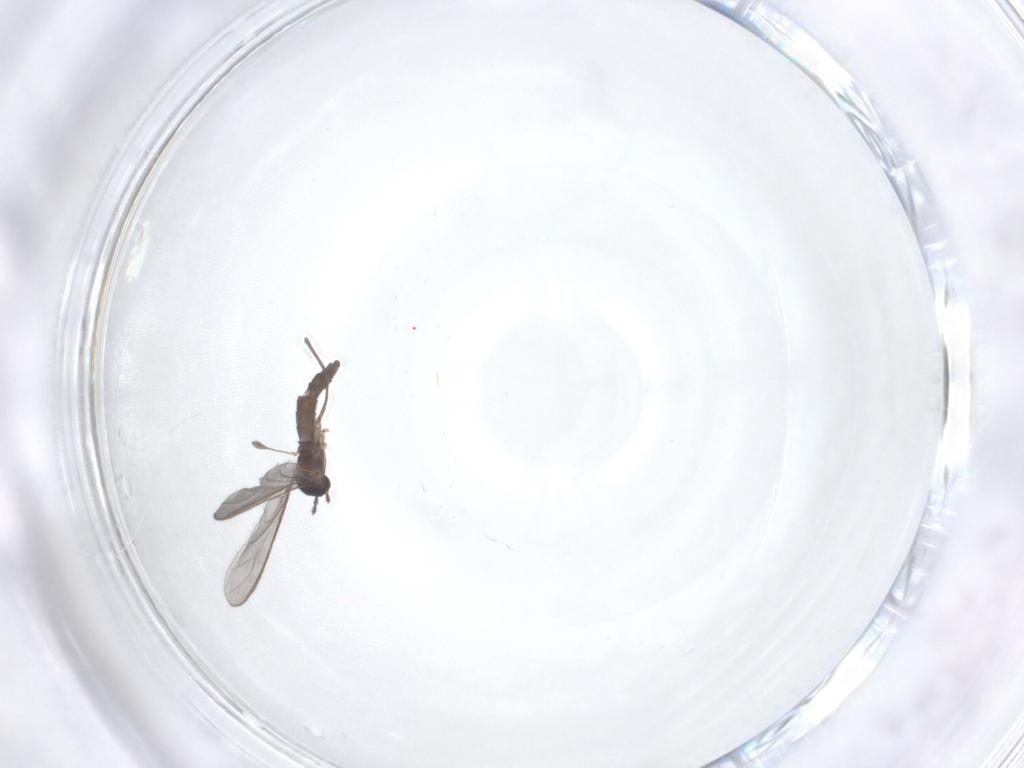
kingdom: Animalia
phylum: Arthropoda
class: Insecta
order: Diptera
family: Sciaridae
